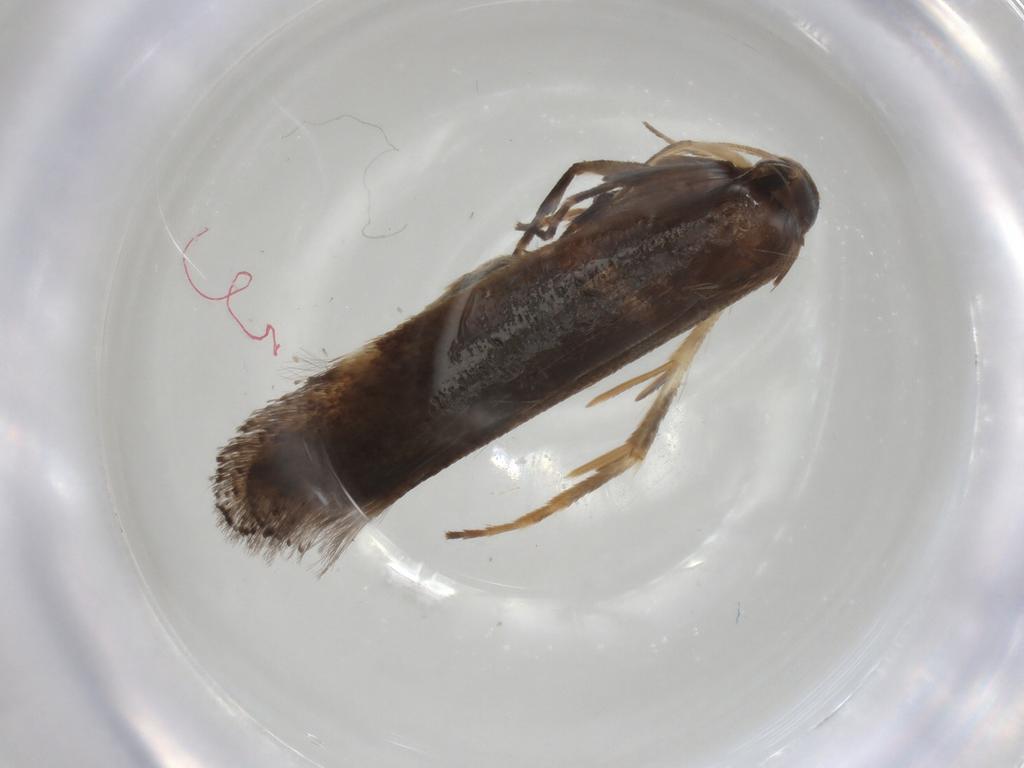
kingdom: Animalia
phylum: Arthropoda
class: Insecta
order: Lepidoptera
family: Gelechiidae
